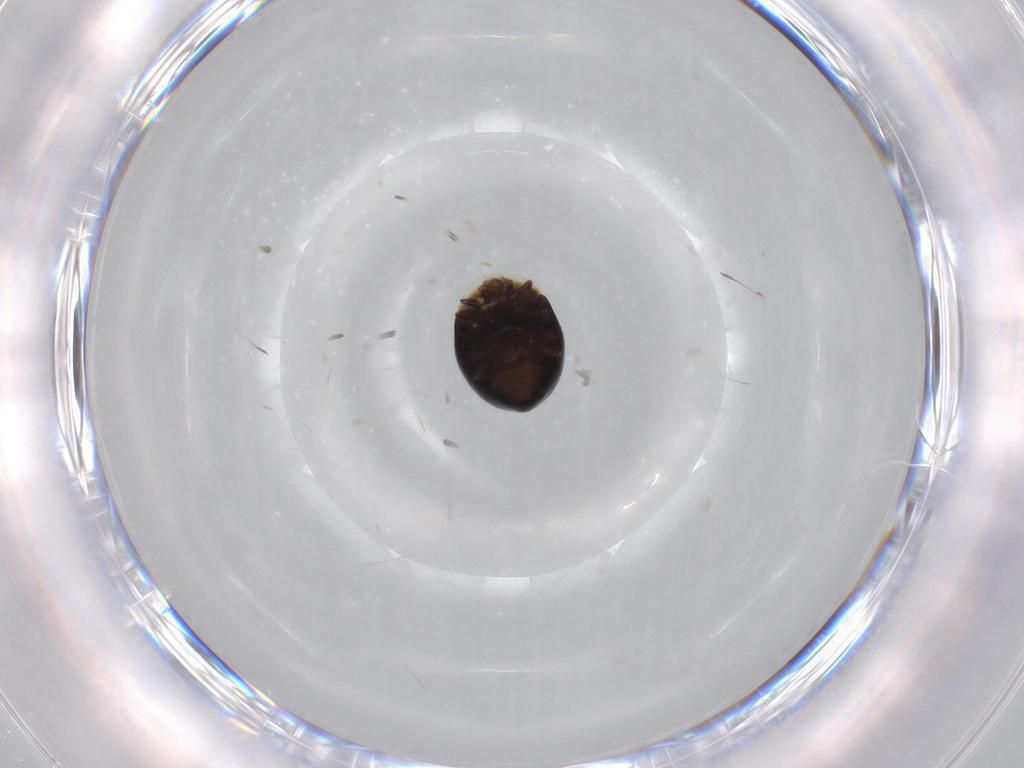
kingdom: Animalia
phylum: Arthropoda
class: Insecta
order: Coleoptera
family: Corylophidae
